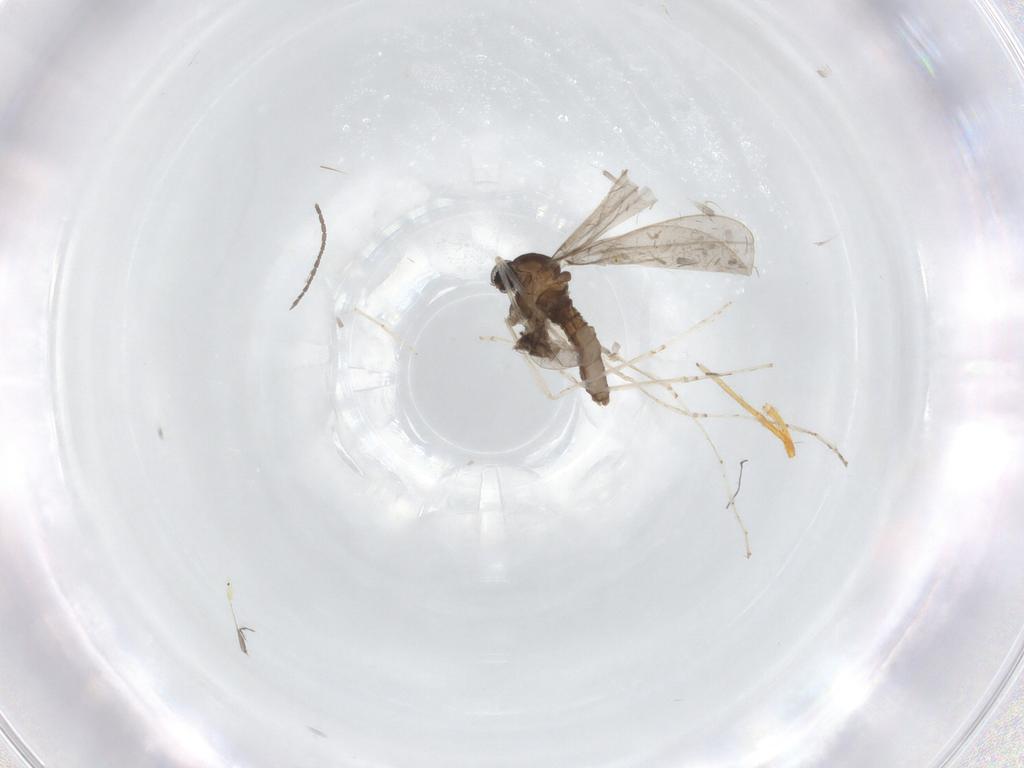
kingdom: Animalia
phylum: Arthropoda
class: Insecta
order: Diptera
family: Cecidomyiidae
